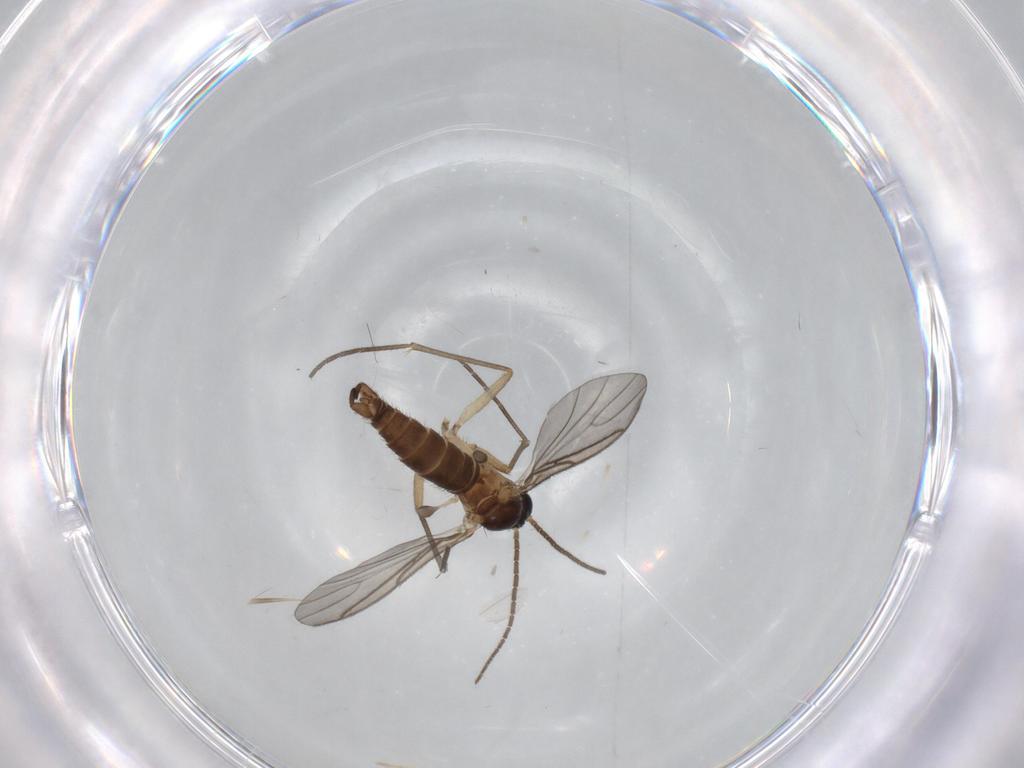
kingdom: Animalia
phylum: Arthropoda
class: Insecta
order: Diptera
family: Sciaridae
